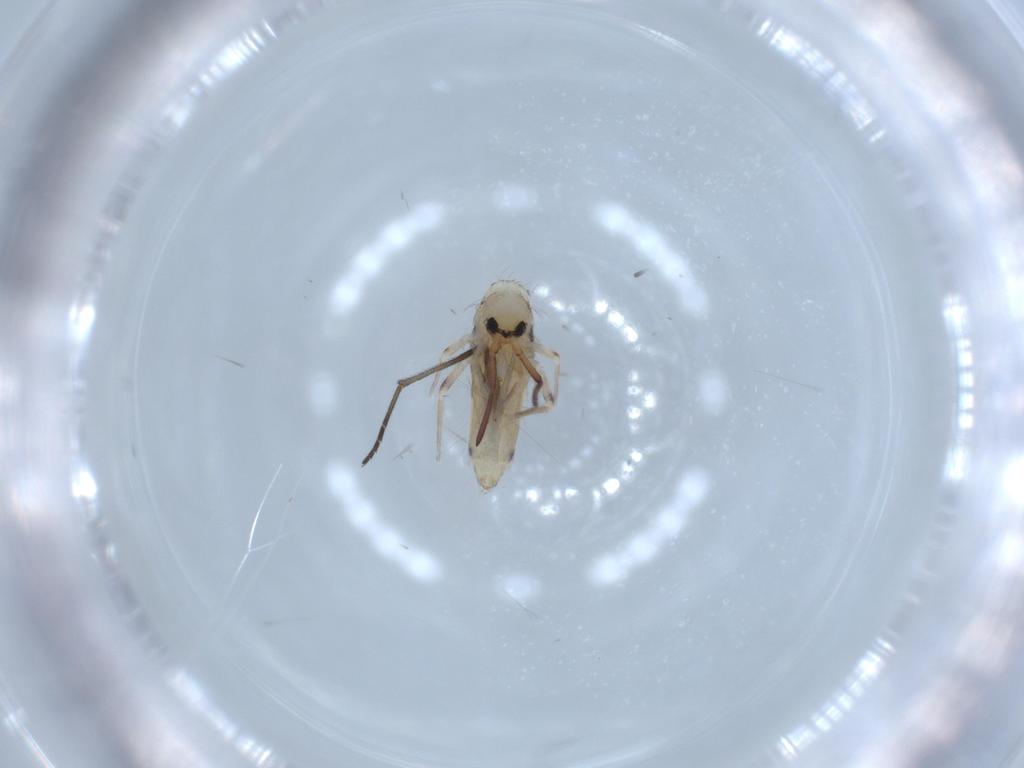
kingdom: Animalia
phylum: Arthropoda
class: Collembola
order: Entomobryomorpha
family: Entomobryidae
